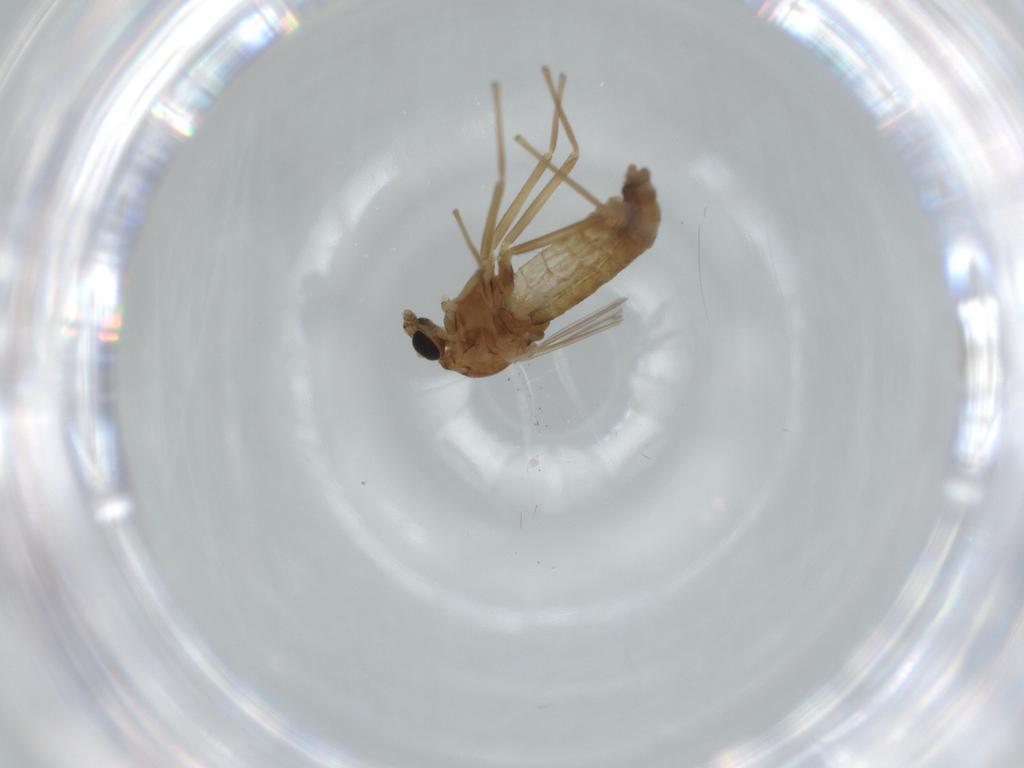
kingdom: Animalia
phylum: Arthropoda
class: Insecta
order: Diptera
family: Chironomidae
